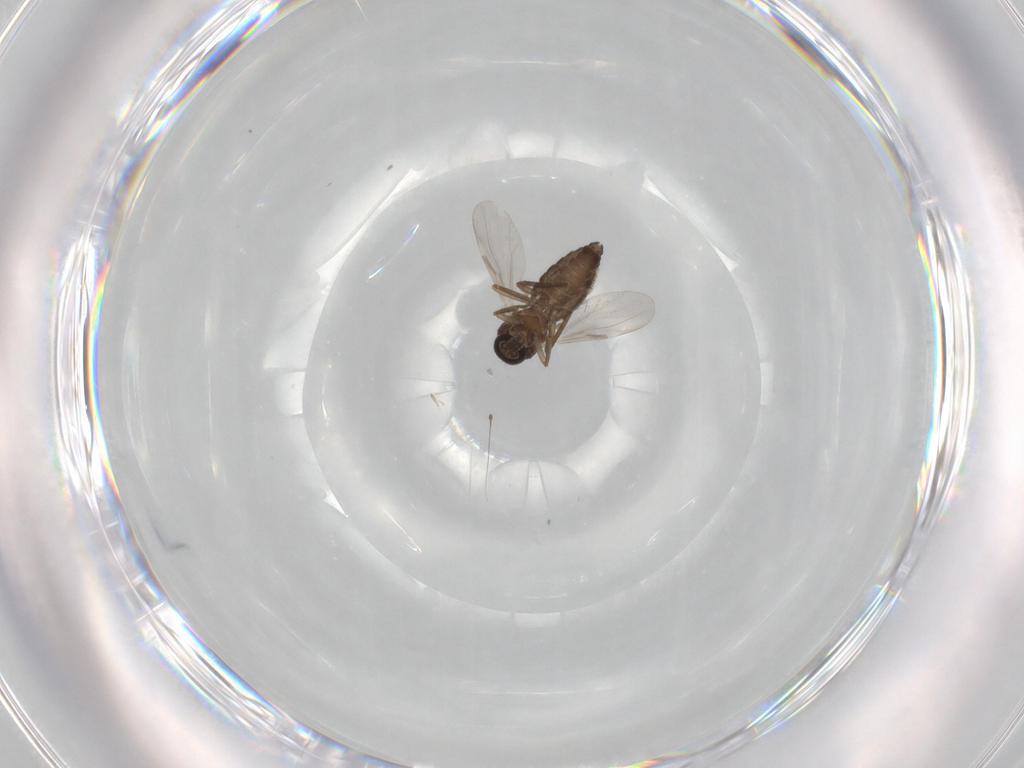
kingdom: Animalia
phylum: Arthropoda
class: Insecta
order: Diptera
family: Ceratopogonidae
